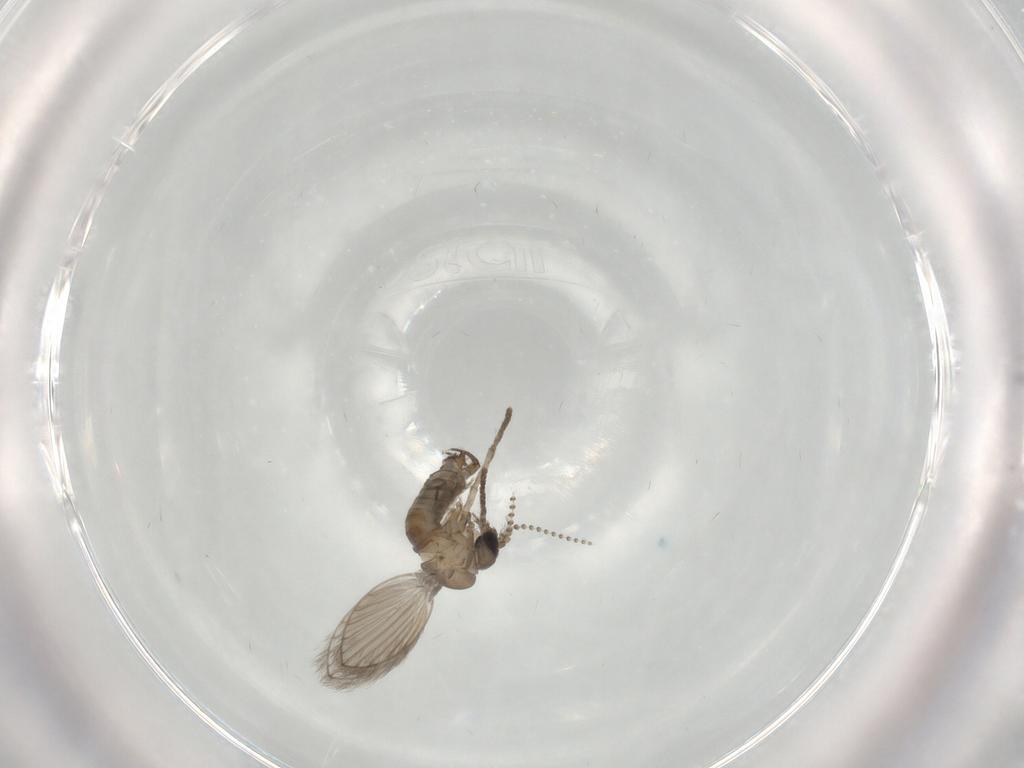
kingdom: Animalia
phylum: Arthropoda
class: Insecta
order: Diptera
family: Psychodidae
